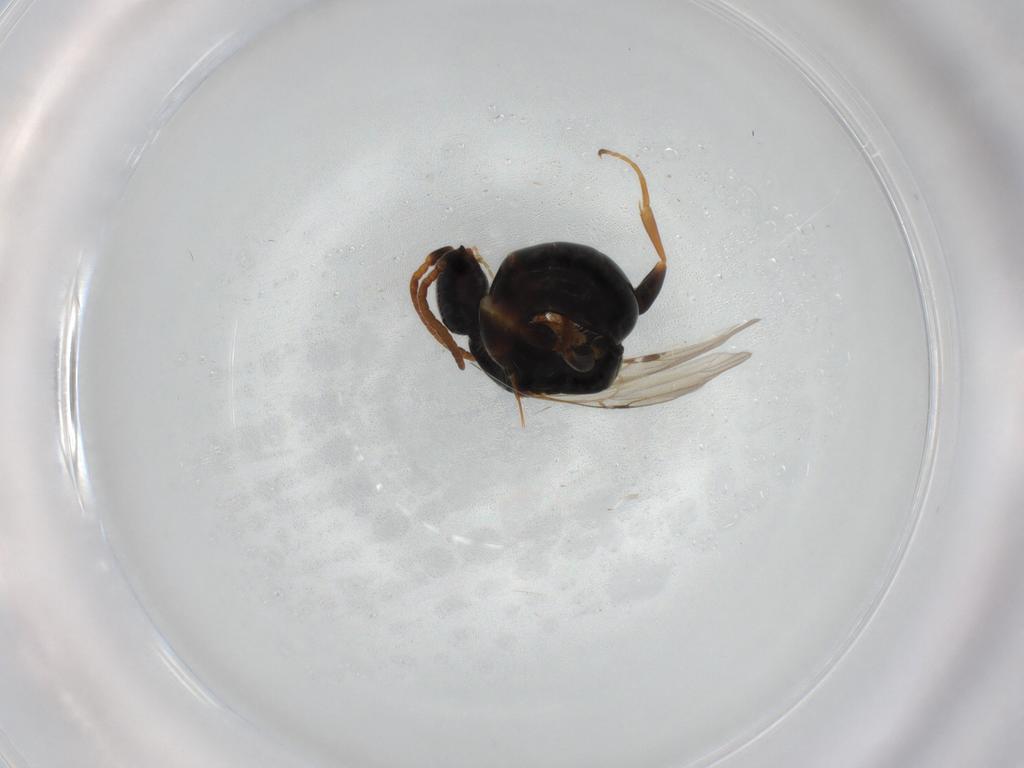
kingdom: Animalia
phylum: Arthropoda
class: Insecta
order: Hymenoptera
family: Bethylidae
